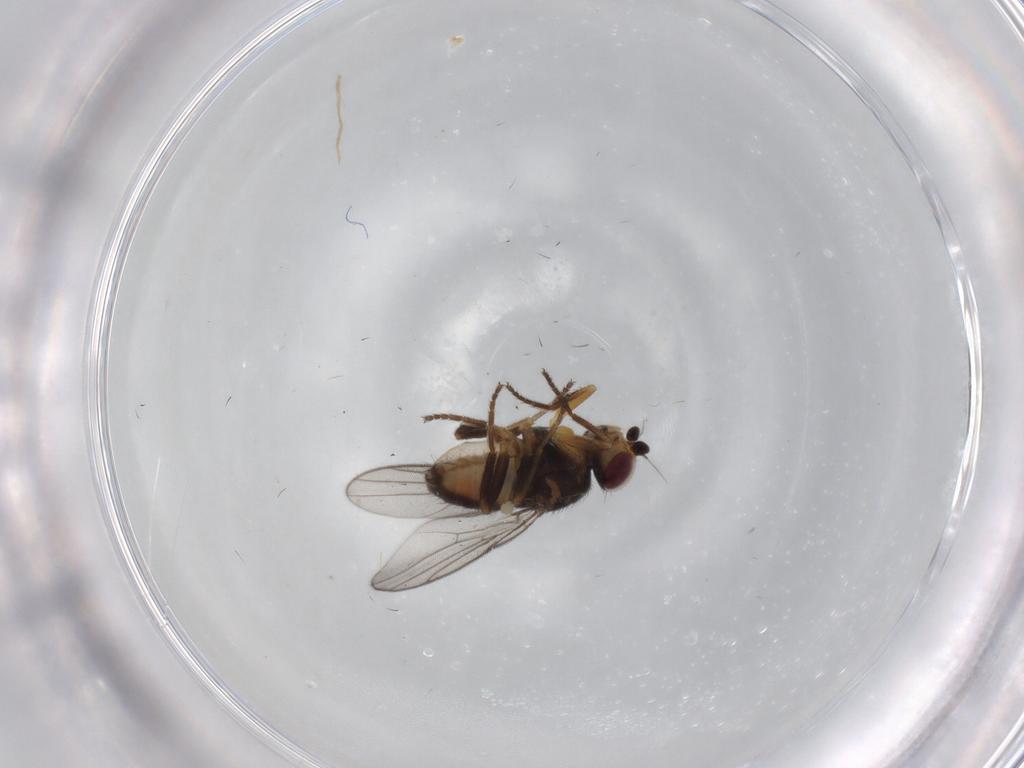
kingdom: Animalia
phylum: Arthropoda
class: Insecta
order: Diptera
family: Chloropidae
